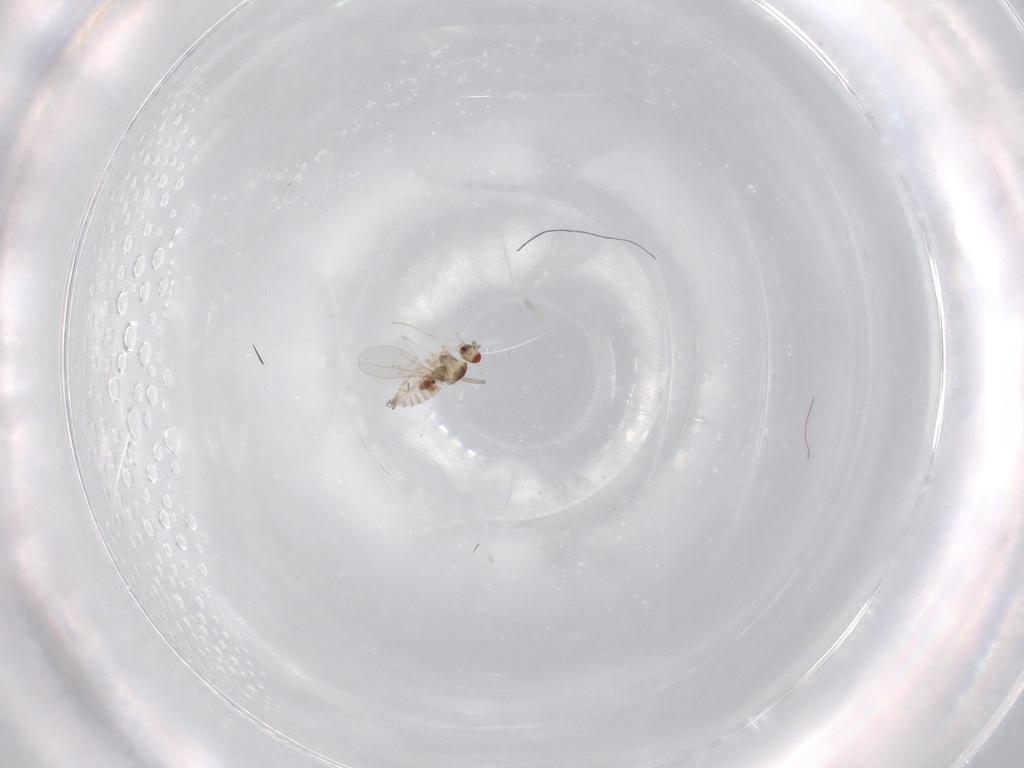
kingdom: Animalia
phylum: Arthropoda
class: Insecta
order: Diptera
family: Cecidomyiidae
